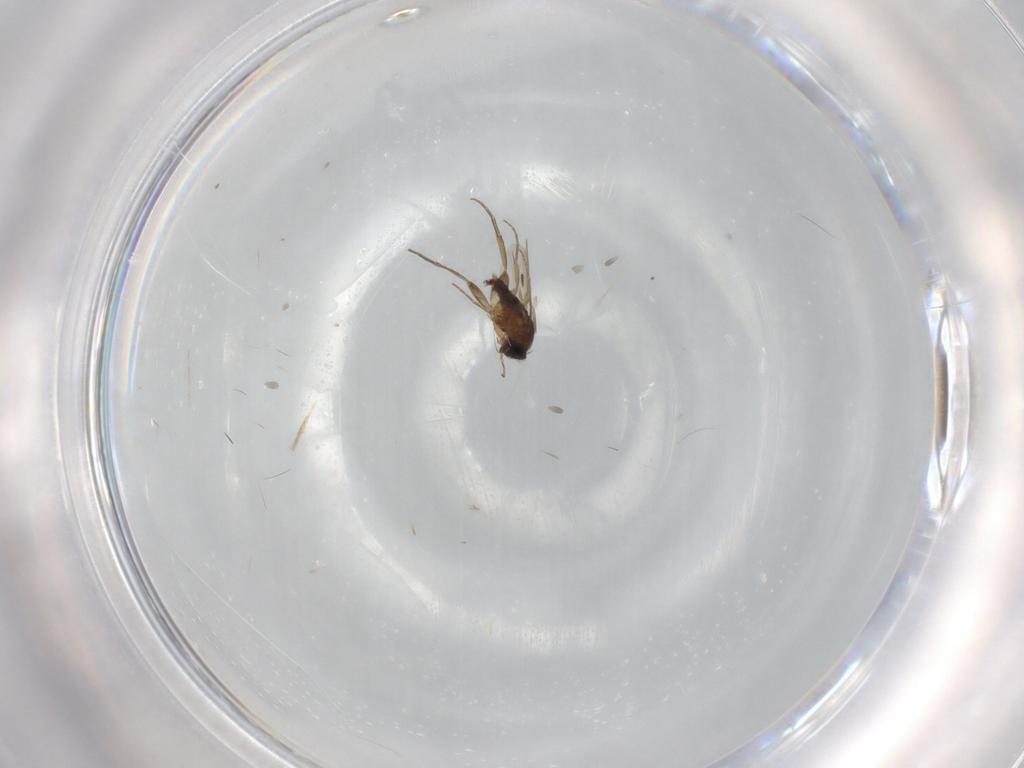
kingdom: Animalia
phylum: Arthropoda
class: Insecta
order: Diptera
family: Phoridae
